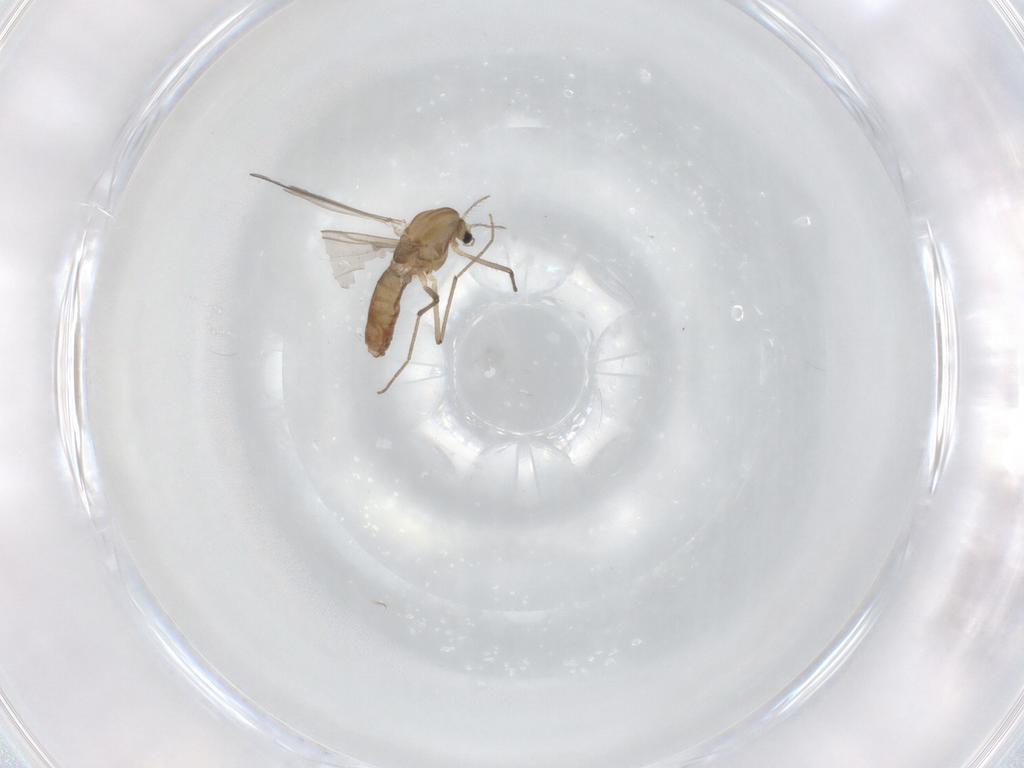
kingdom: Animalia
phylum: Arthropoda
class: Insecta
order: Diptera
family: Chironomidae
